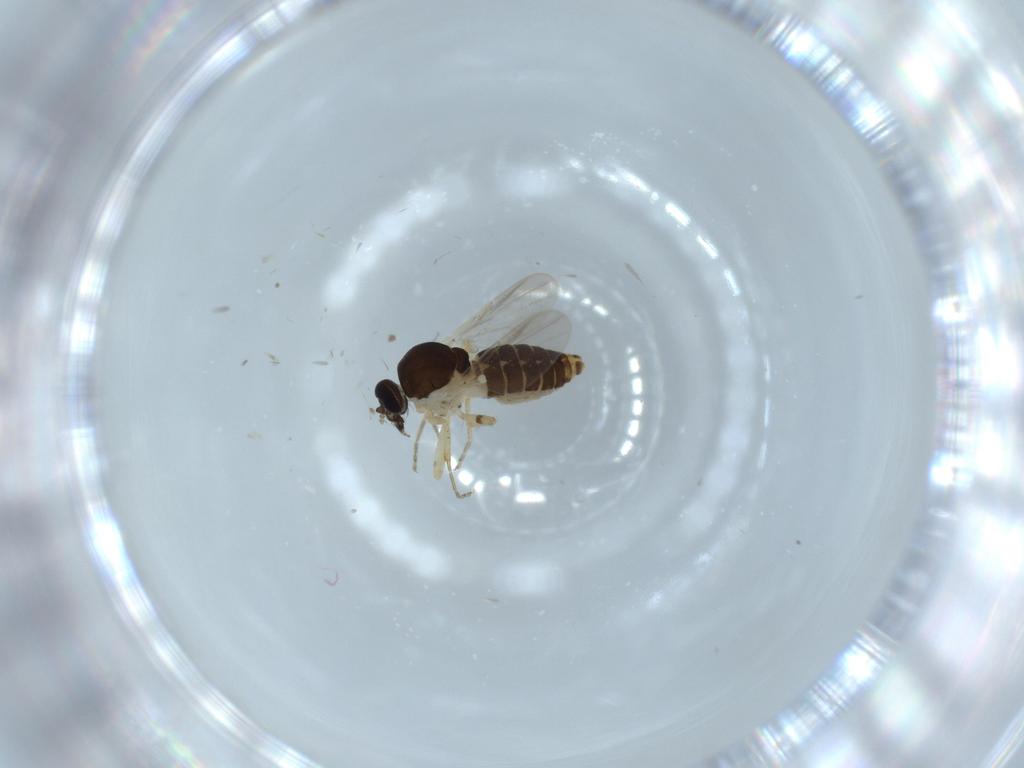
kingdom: Animalia
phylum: Arthropoda
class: Insecta
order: Diptera
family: Ceratopogonidae
